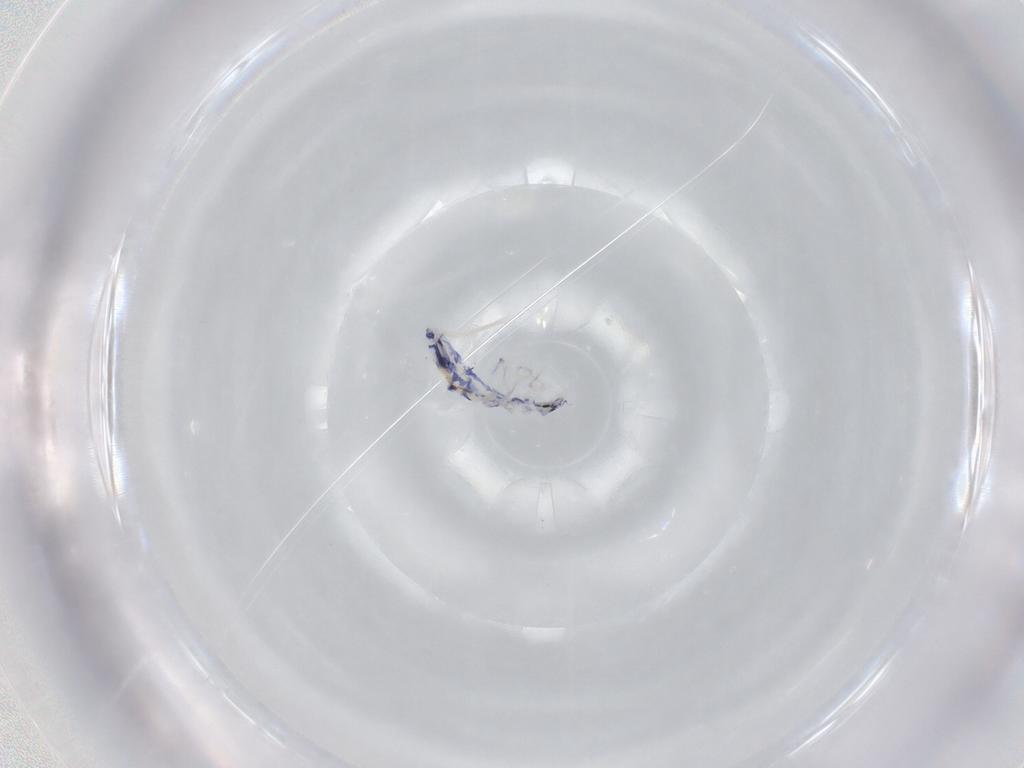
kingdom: Animalia
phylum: Arthropoda
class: Collembola
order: Entomobryomorpha
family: Entomobryidae
